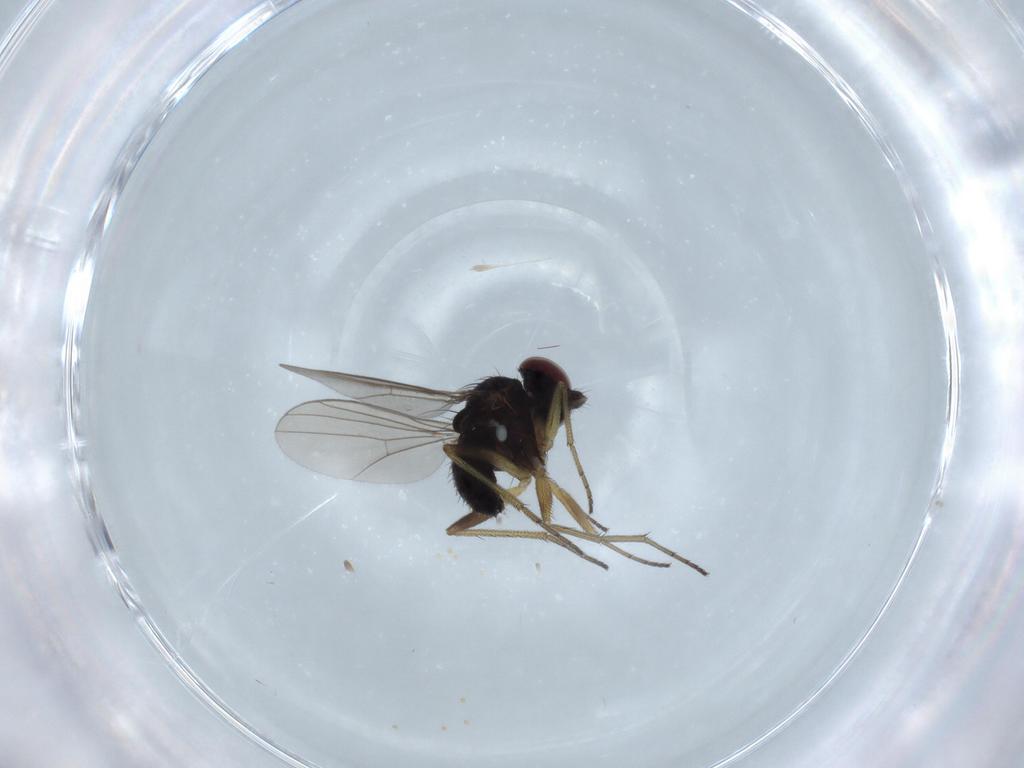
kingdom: Animalia
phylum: Arthropoda
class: Insecta
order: Diptera
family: Dolichopodidae
